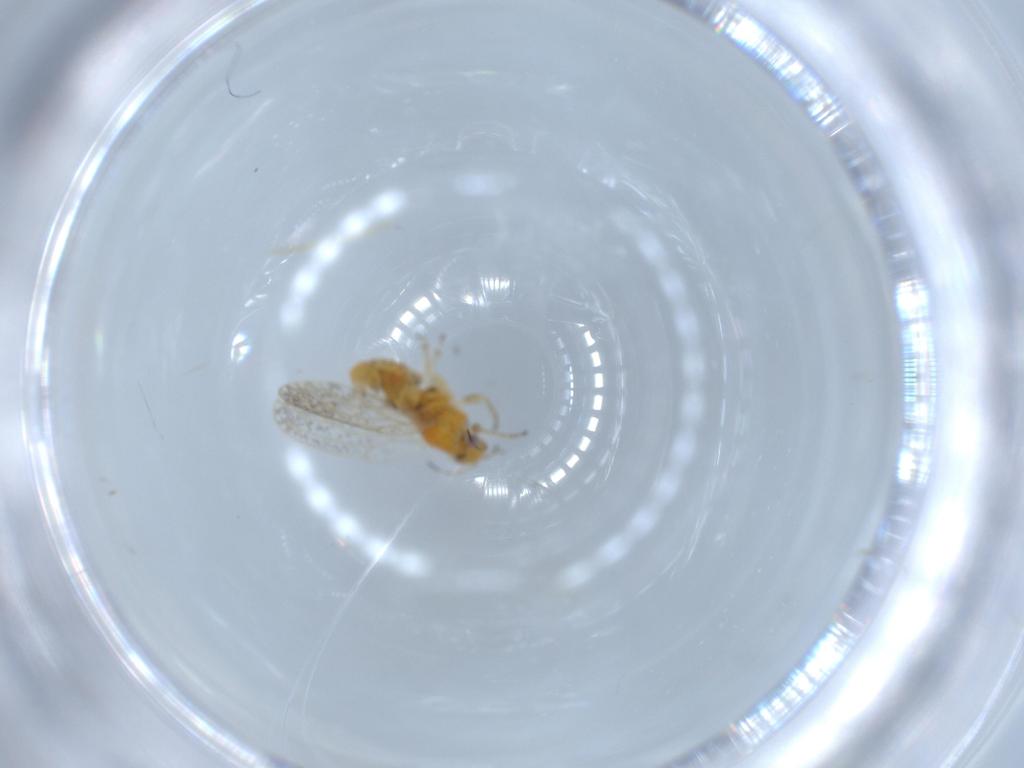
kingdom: Animalia
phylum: Arthropoda
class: Insecta
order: Hemiptera
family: Psyllidae
